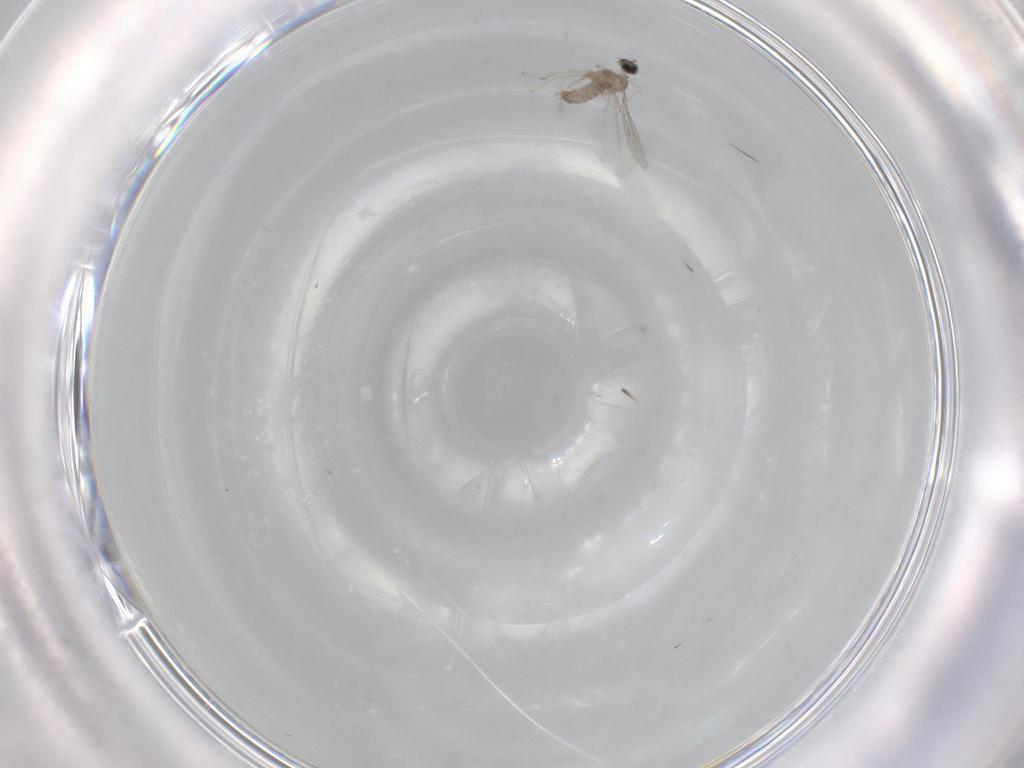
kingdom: Animalia
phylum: Arthropoda
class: Insecta
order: Diptera
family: Cecidomyiidae
